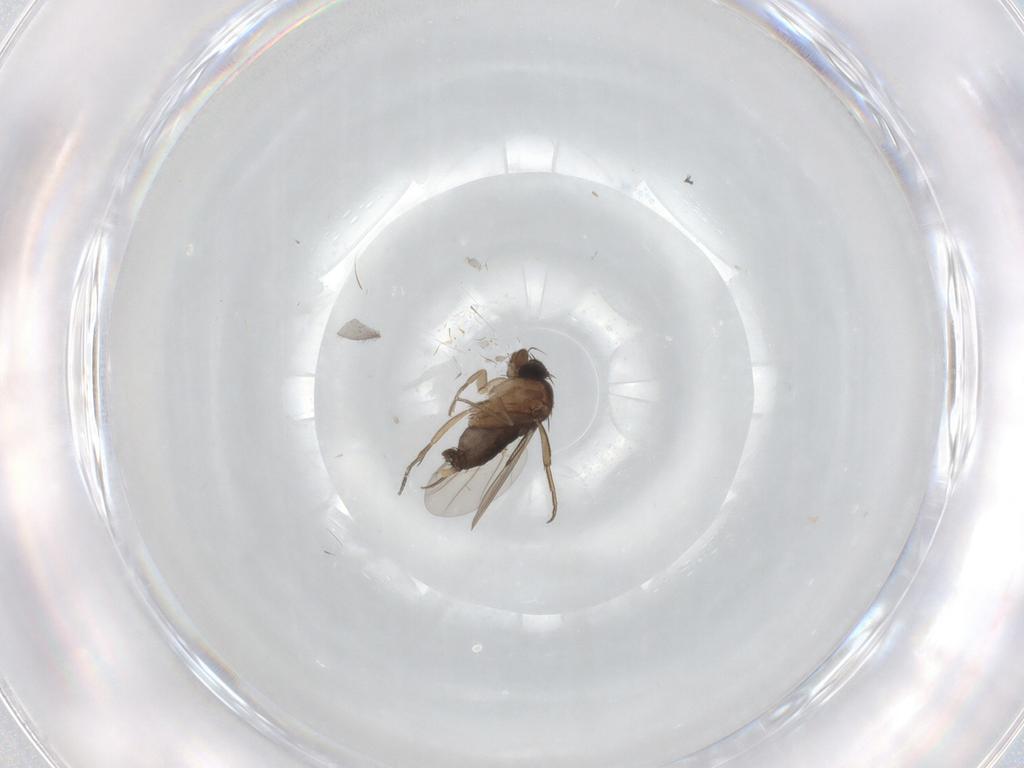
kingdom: Animalia
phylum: Arthropoda
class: Insecta
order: Diptera
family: Phoridae
